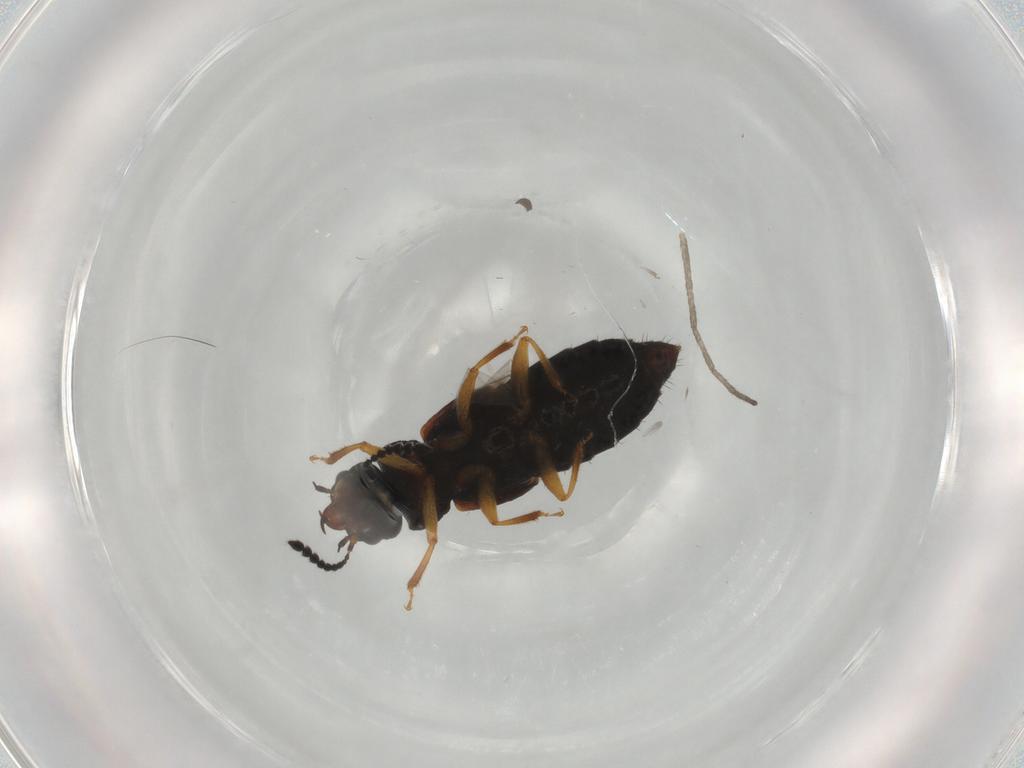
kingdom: Animalia
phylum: Arthropoda
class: Insecta
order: Coleoptera
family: Staphylinidae
